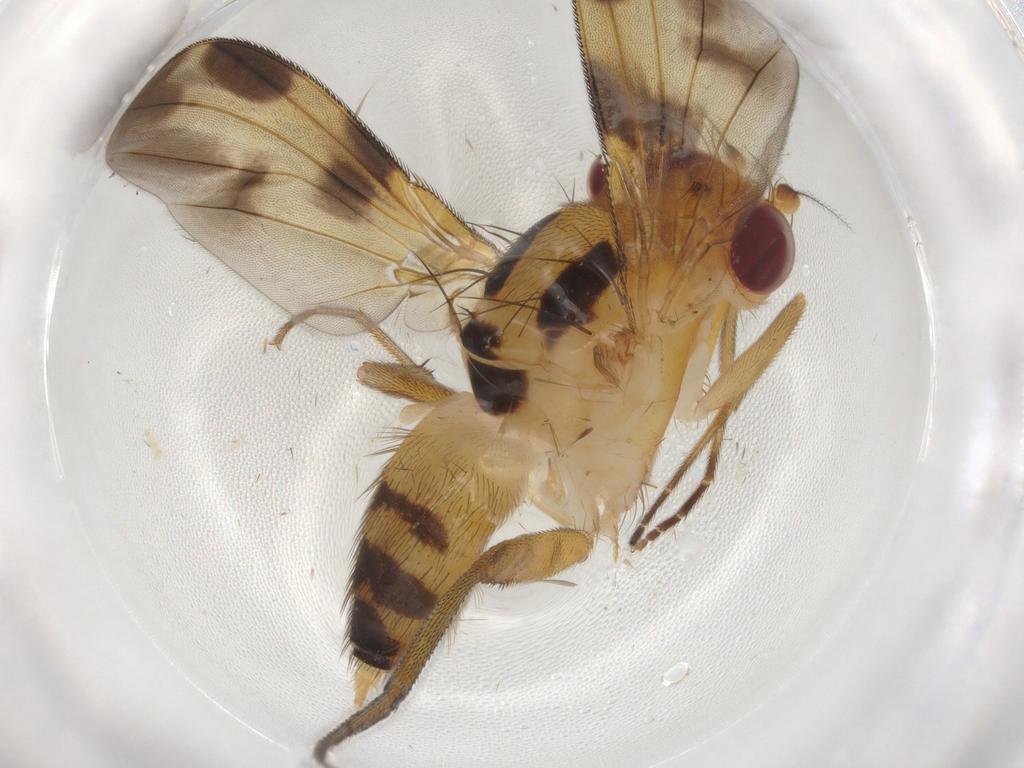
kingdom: Animalia
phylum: Arthropoda
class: Insecta
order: Diptera
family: Clusiidae
